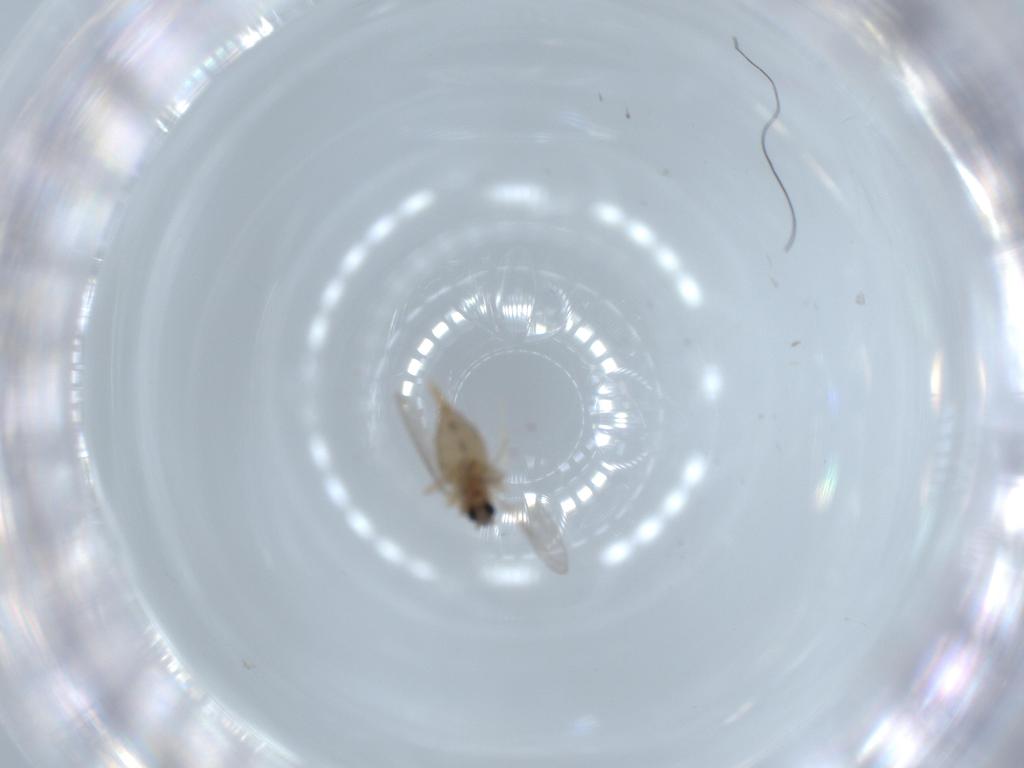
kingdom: Animalia
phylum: Arthropoda
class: Insecta
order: Diptera
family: Cecidomyiidae
